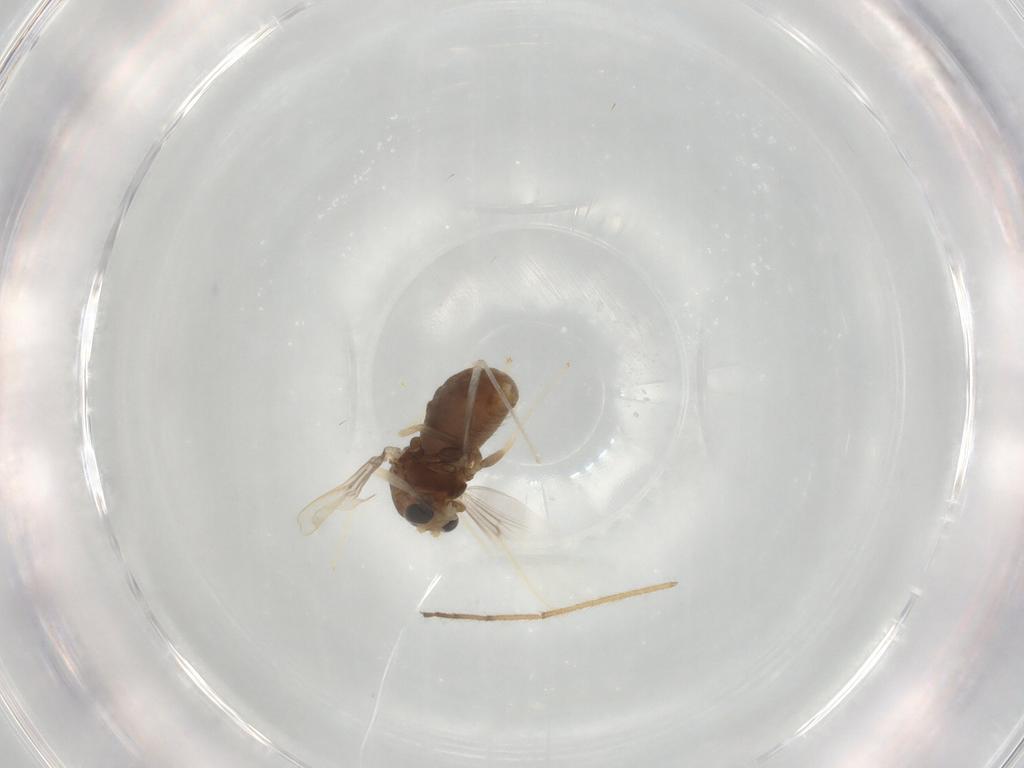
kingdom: Animalia
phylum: Arthropoda
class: Insecta
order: Diptera
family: Chironomidae
